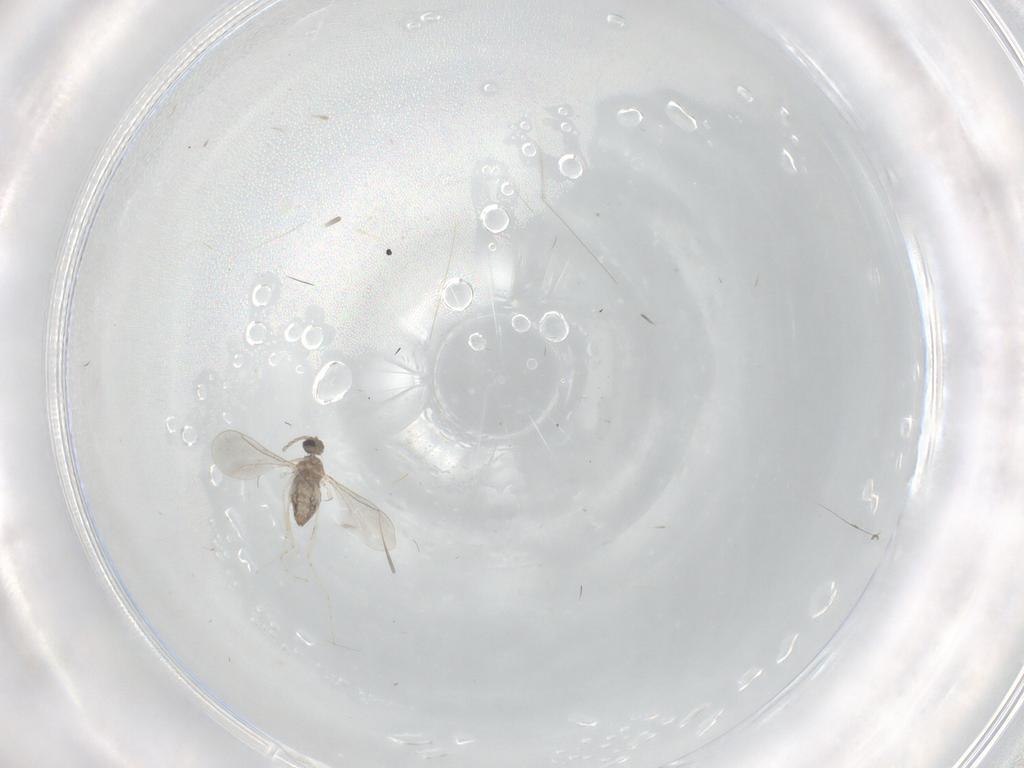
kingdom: Animalia
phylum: Arthropoda
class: Insecta
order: Diptera
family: Cecidomyiidae
